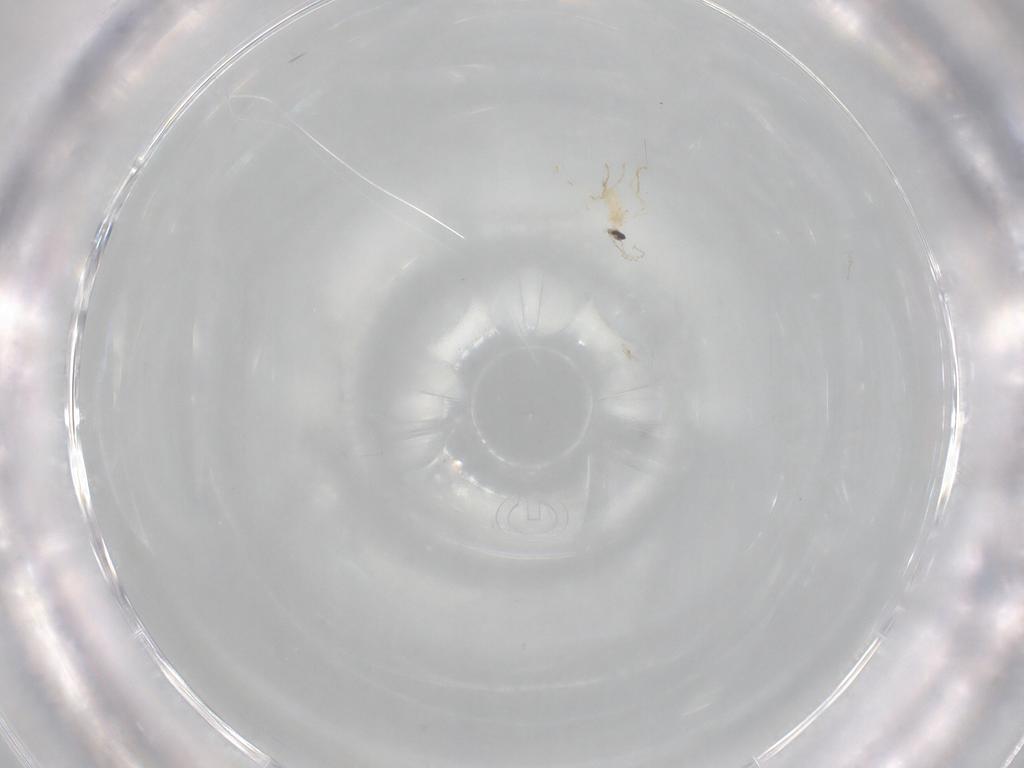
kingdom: Animalia
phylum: Arthropoda
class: Insecta
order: Diptera
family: Cecidomyiidae
